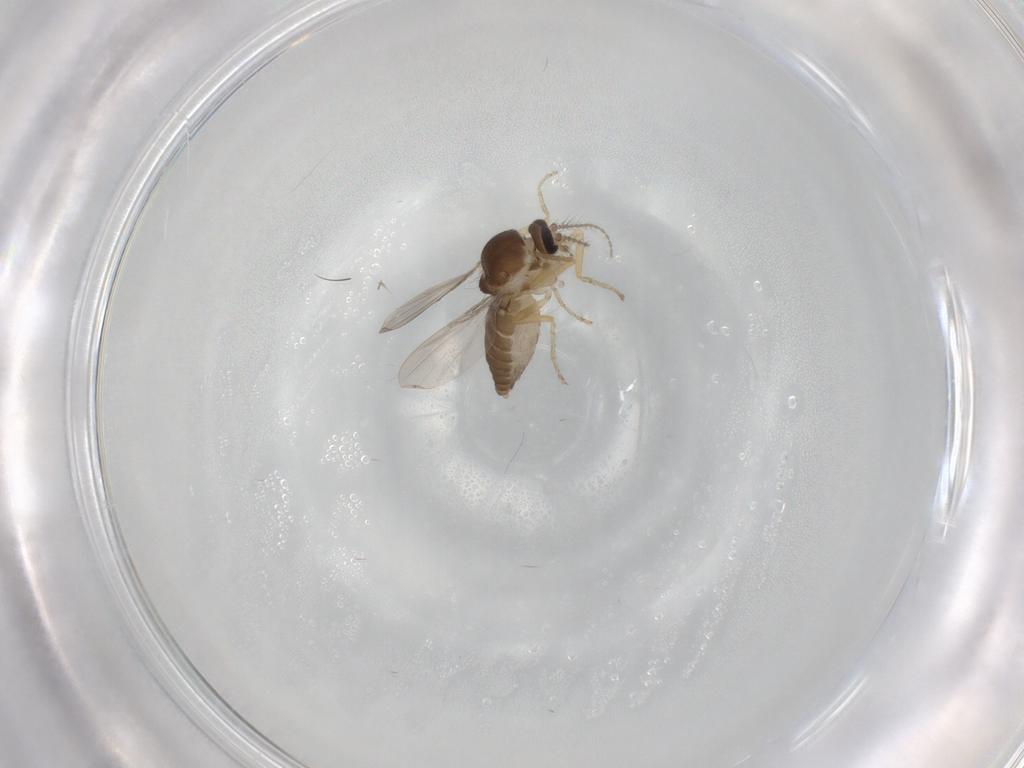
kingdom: Animalia
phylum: Arthropoda
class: Insecta
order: Diptera
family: Ceratopogonidae
